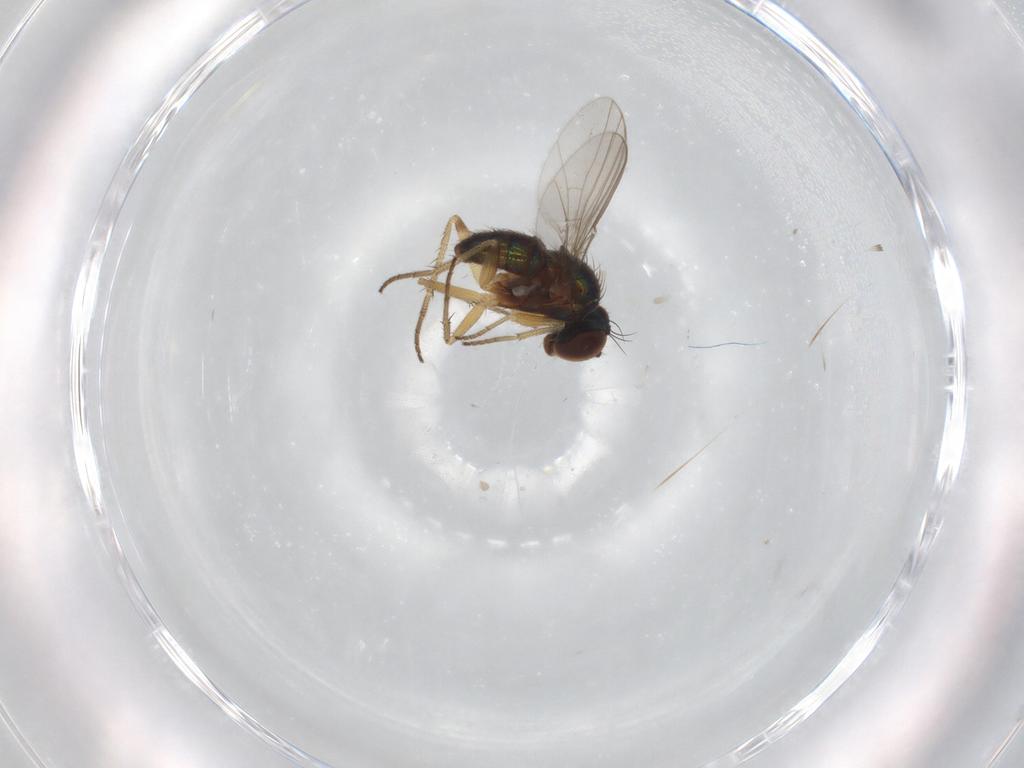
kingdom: Animalia
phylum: Arthropoda
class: Insecta
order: Diptera
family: Dolichopodidae
